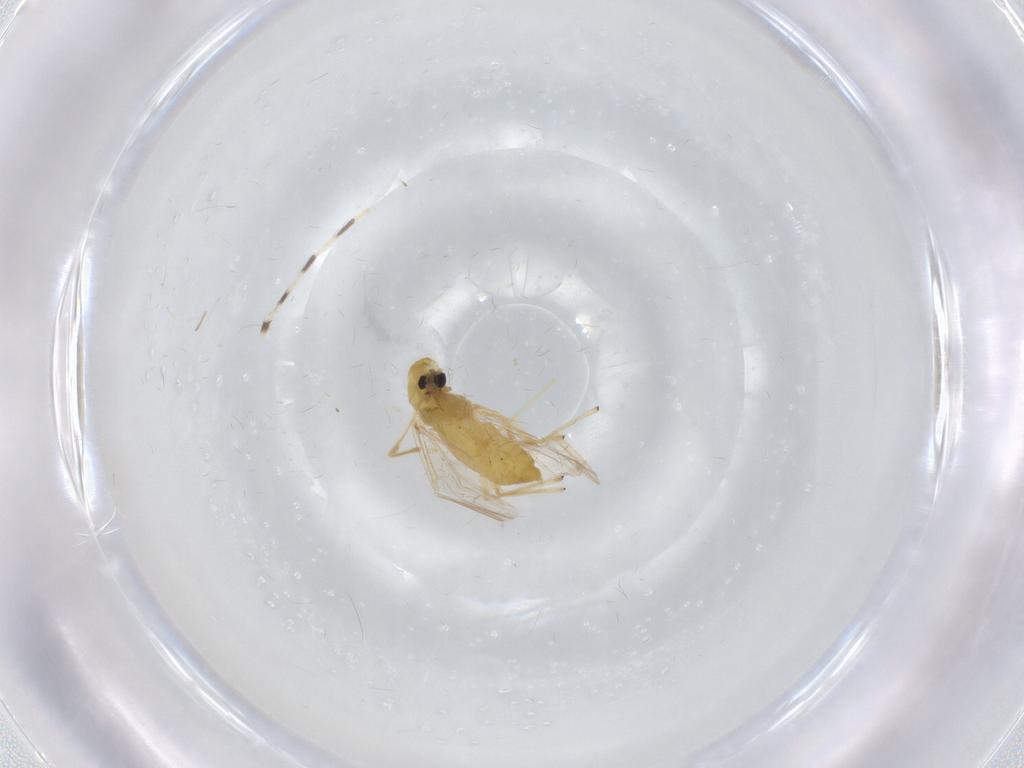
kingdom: Animalia
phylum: Arthropoda
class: Insecta
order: Diptera
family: Chironomidae
